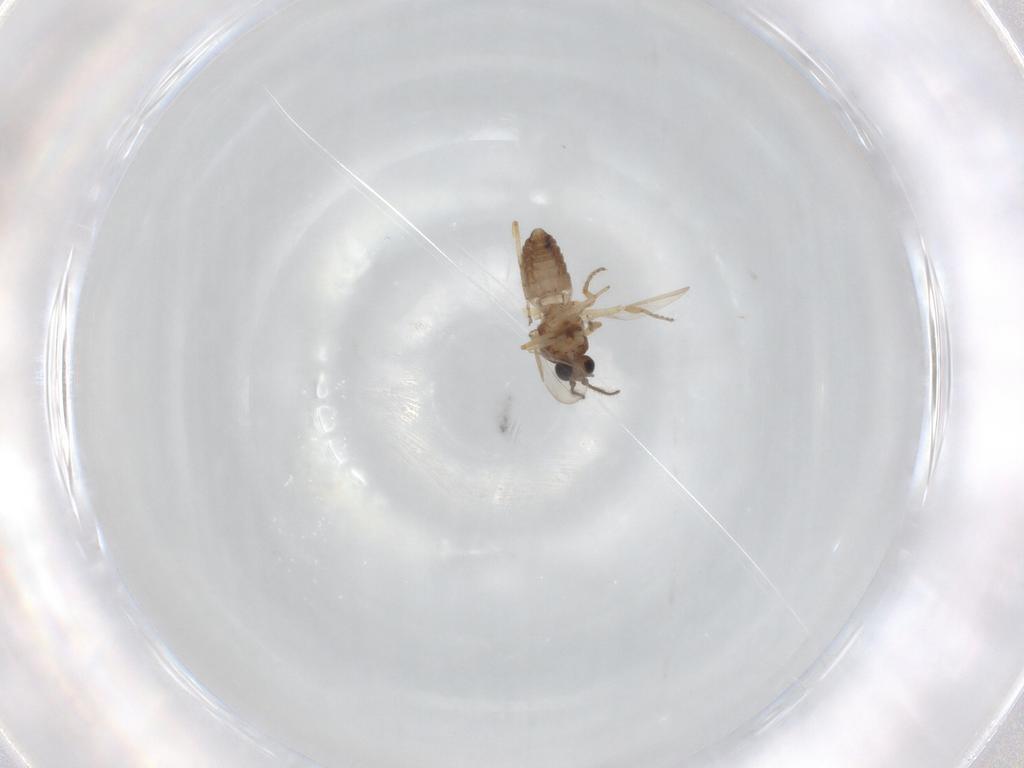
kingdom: Animalia
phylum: Arthropoda
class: Insecta
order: Diptera
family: Ceratopogonidae
